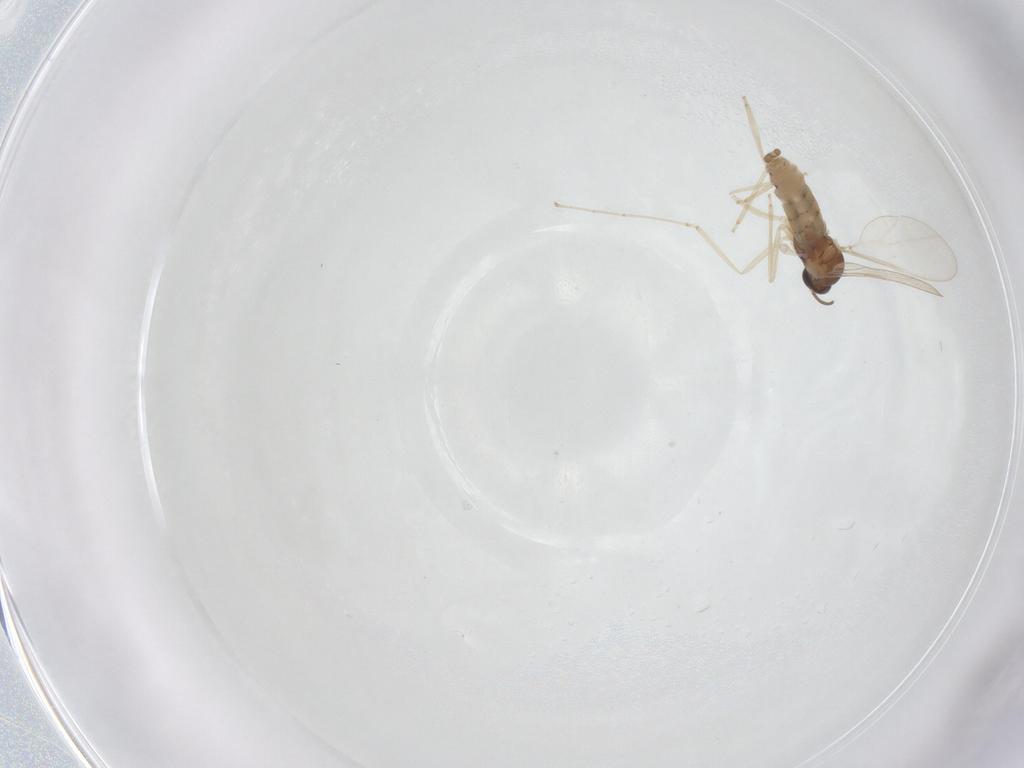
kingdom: Animalia
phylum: Arthropoda
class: Insecta
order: Diptera
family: Cecidomyiidae
